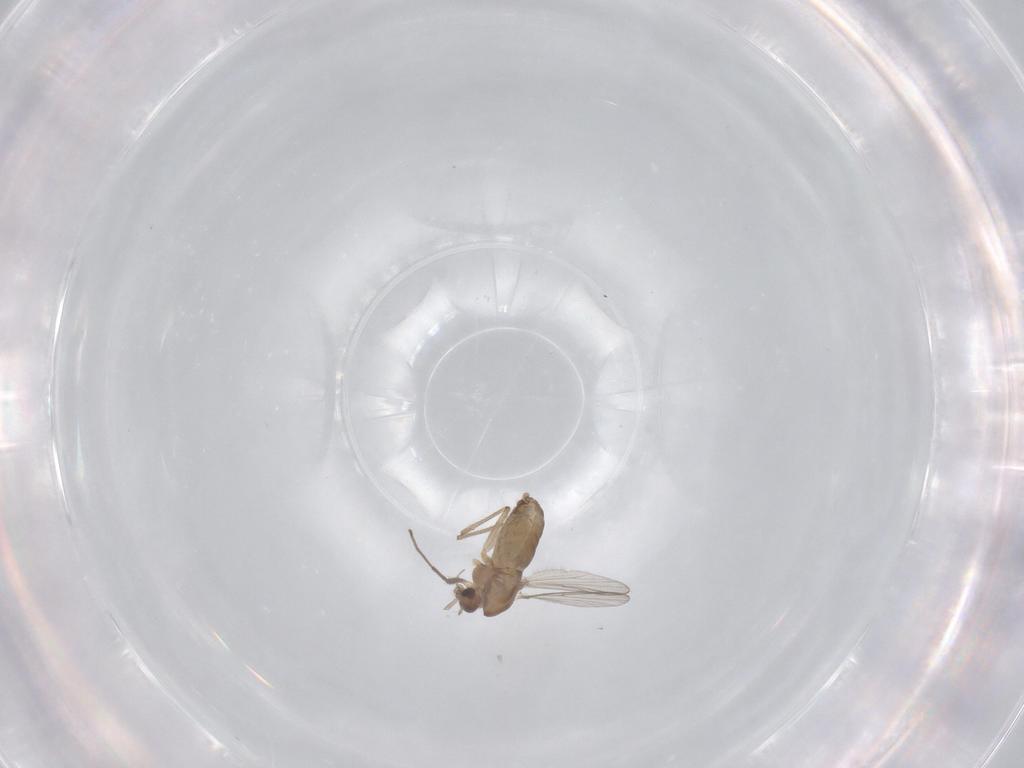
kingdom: Animalia
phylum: Arthropoda
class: Insecta
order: Diptera
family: Chironomidae
